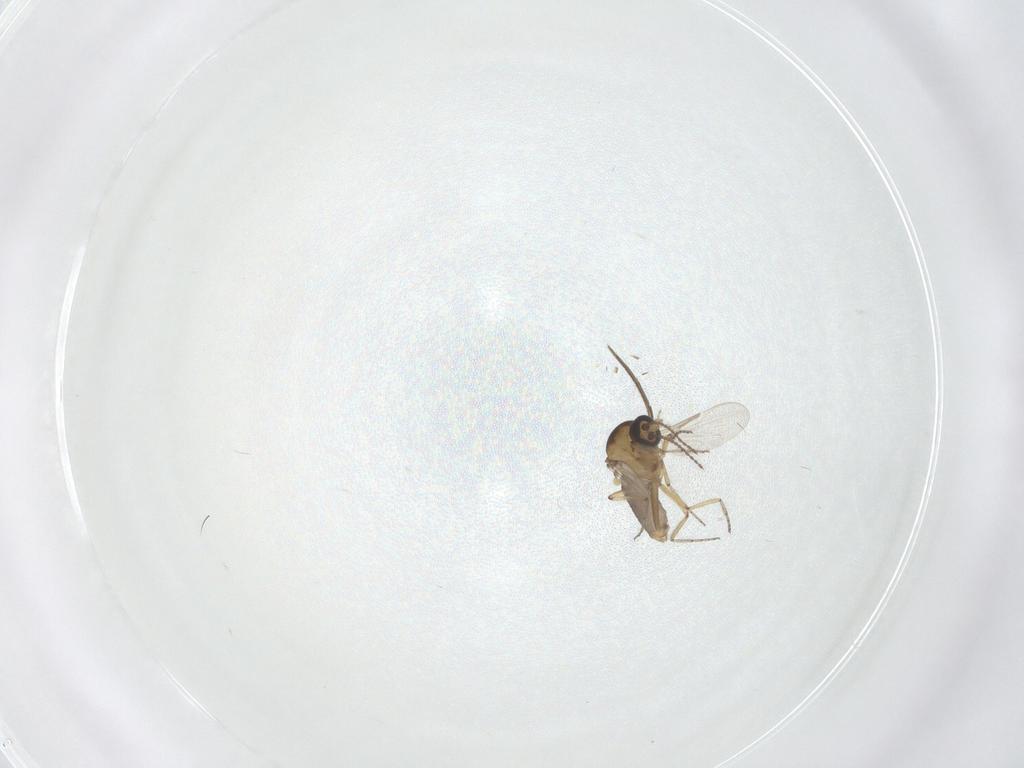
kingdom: Animalia
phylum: Arthropoda
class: Insecta
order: Diptera
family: Ceratopogonidae
